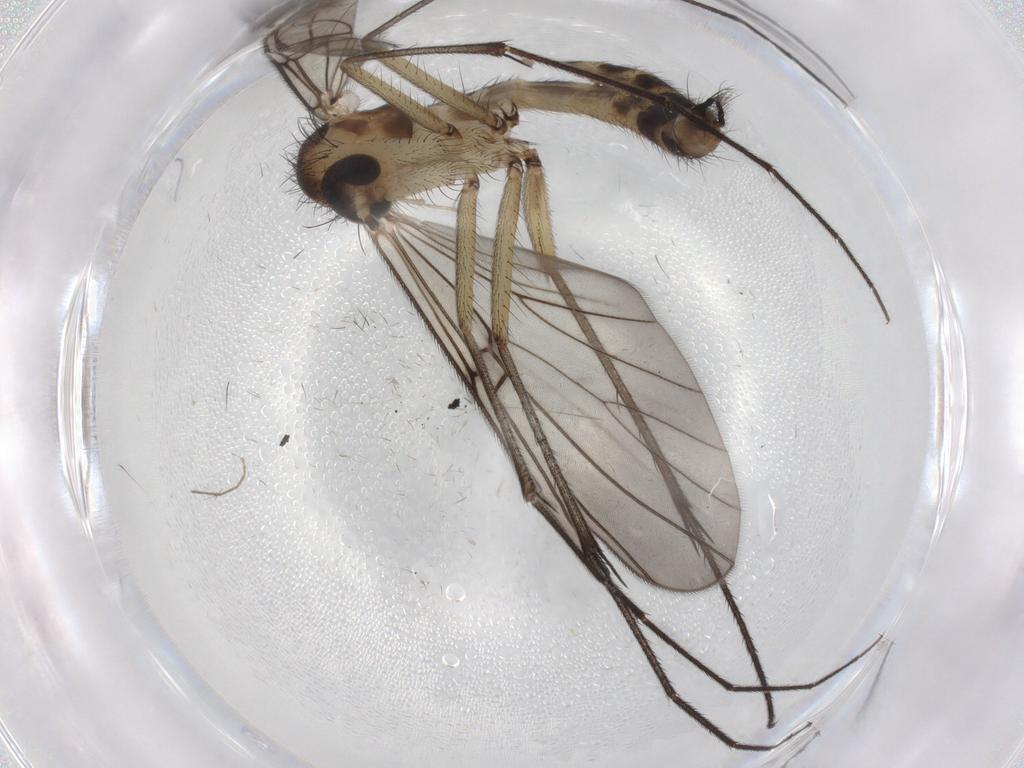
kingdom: Animalia
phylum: Arthropoda
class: Insecta
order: Diptera
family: Mycetophilidae
